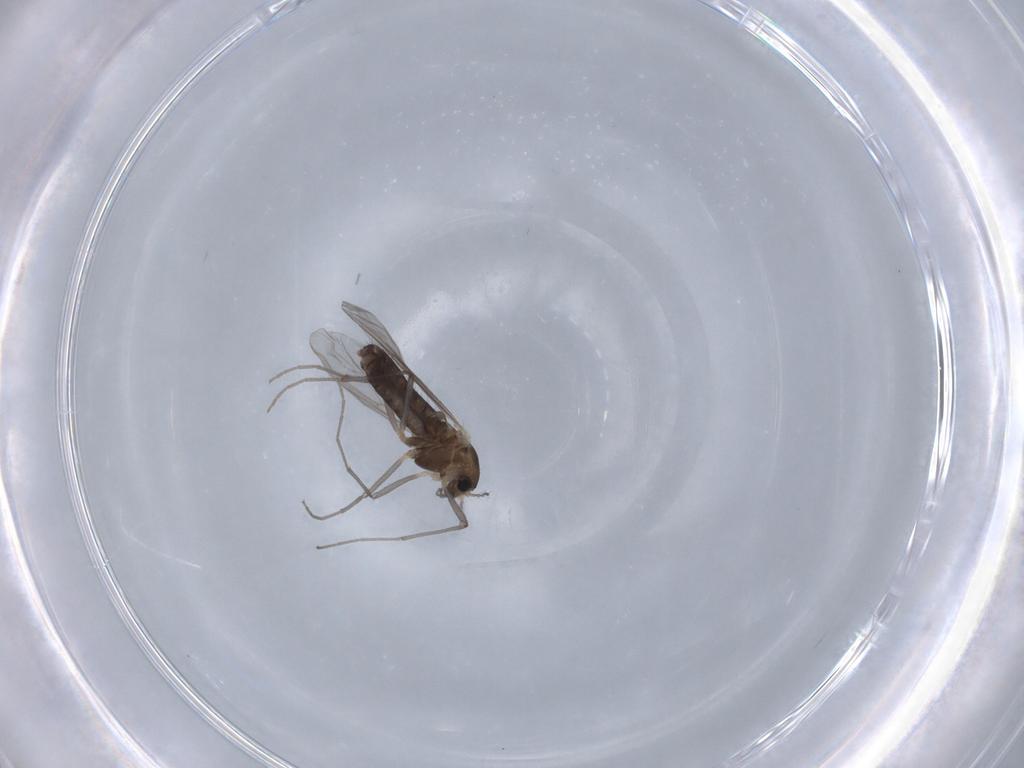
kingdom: Animalia
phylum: Arthropoda
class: Insecta
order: Diptera
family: Chironomidae
